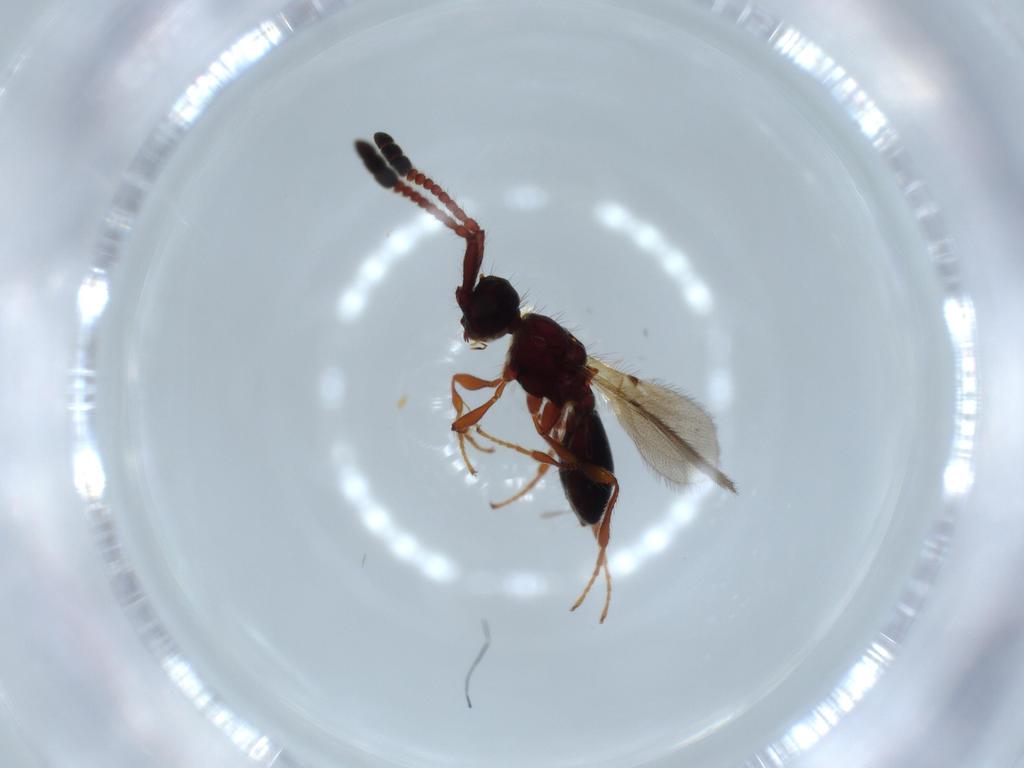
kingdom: Animalia
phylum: Arthropoda
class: Insecta
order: Hymenoptera
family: Diapriidae
